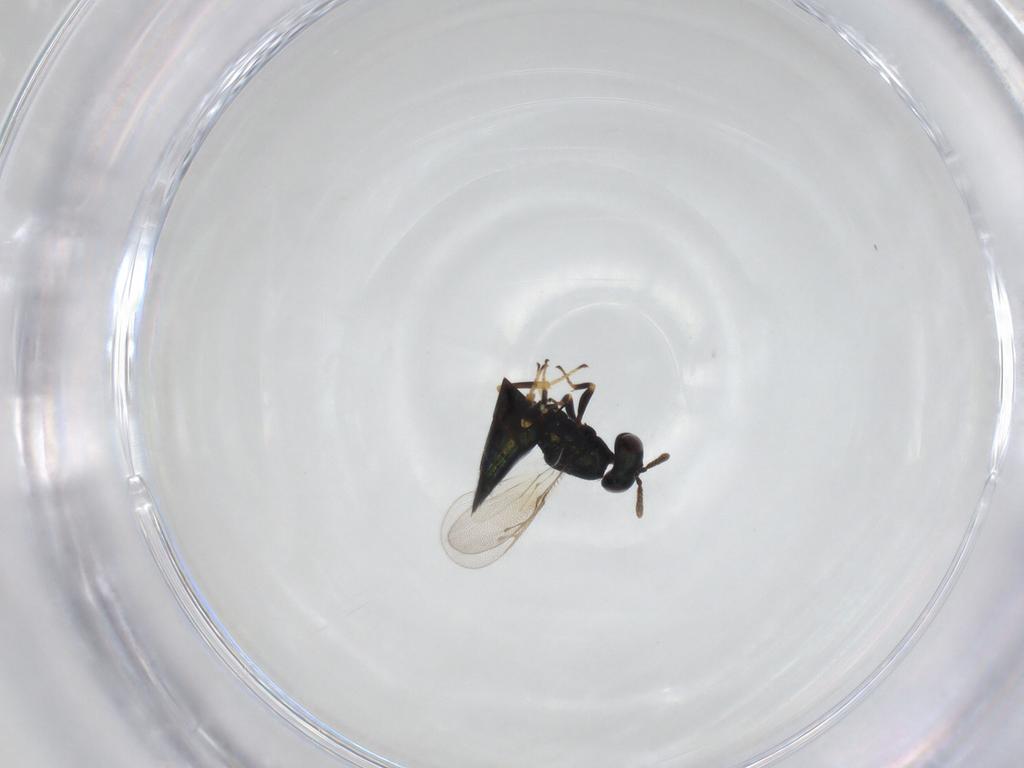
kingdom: Animalia
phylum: Arthropoda
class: Insecta
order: Hymenoptera
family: Pteromalidae
